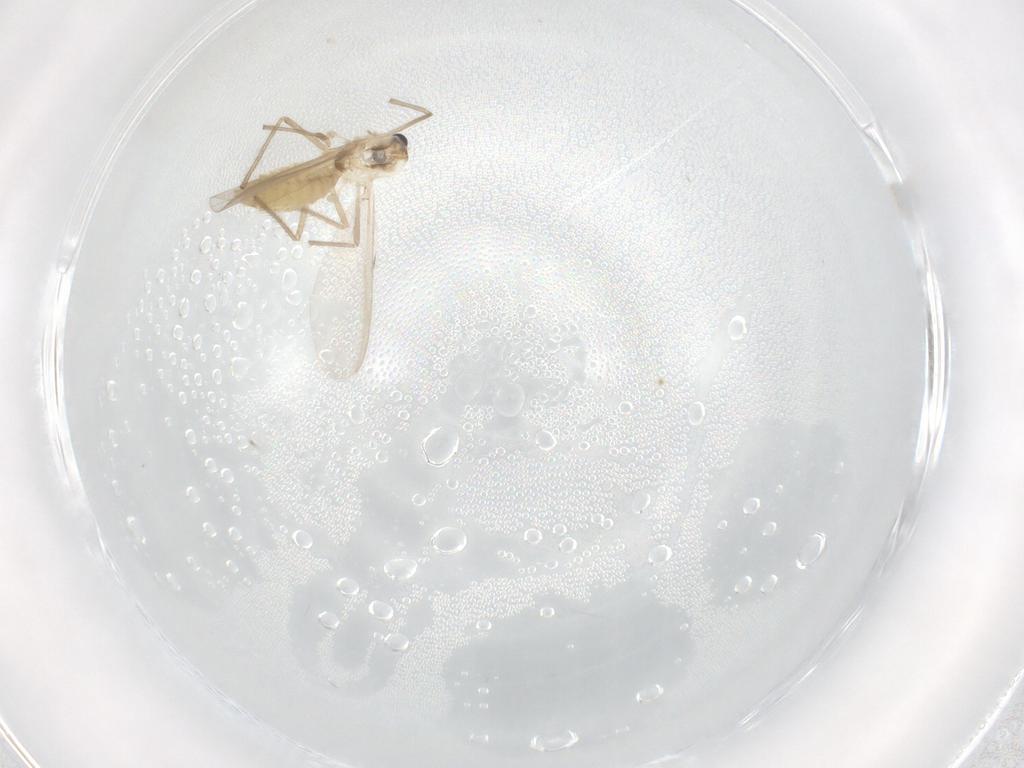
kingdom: Animalia
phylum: Arthropoda
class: Insecta
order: Diptera
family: Chironomidae
